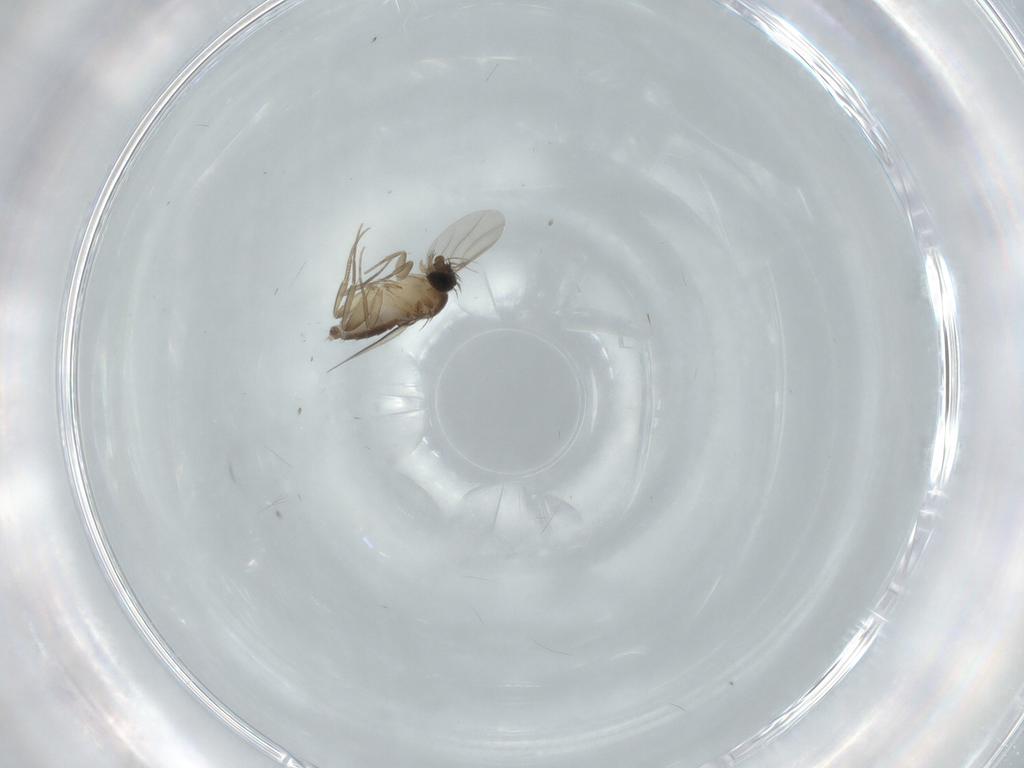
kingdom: Animalia
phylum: Arthropoda
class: Insecta
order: Diptera
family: Phoridae
